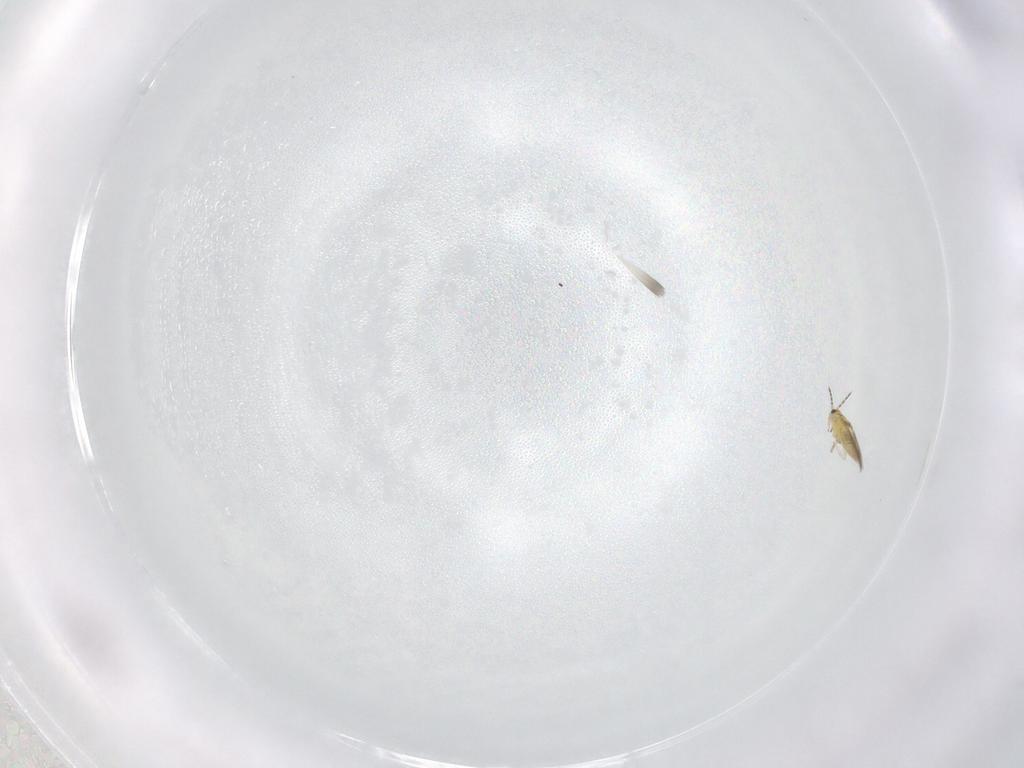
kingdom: Animalia
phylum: Arthropoda
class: Insecta
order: Thysanoptera
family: Thripidae
